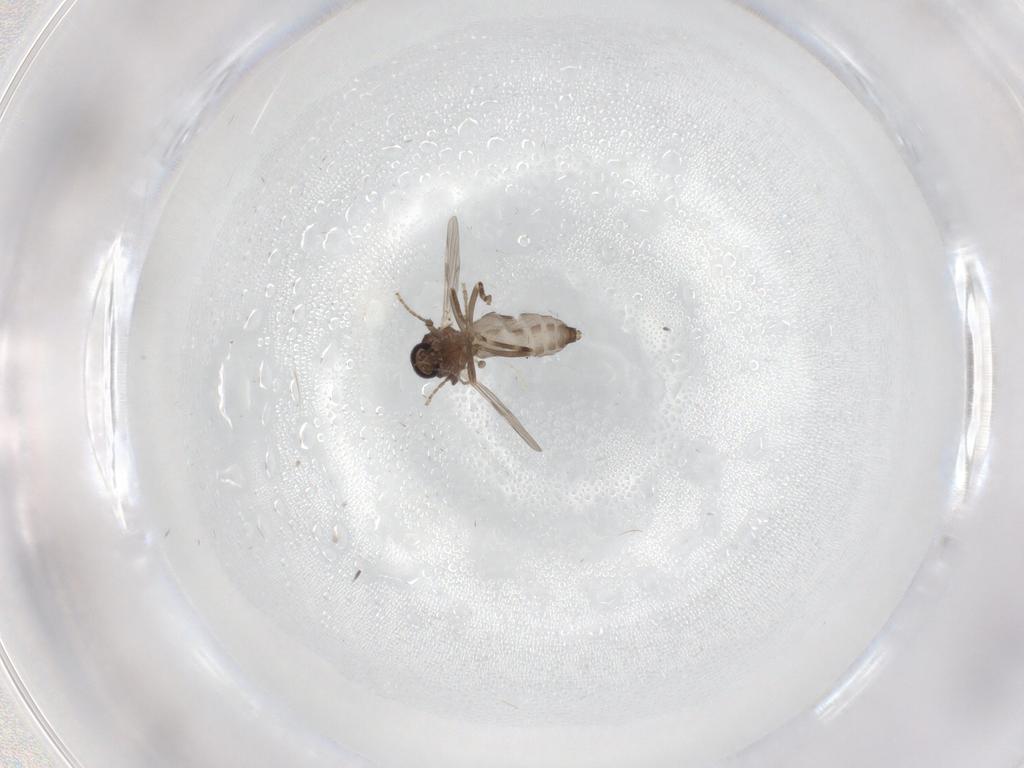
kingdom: Animalia
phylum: Arthropoda
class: Insecta
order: Diptera
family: Ceratopogonidae
